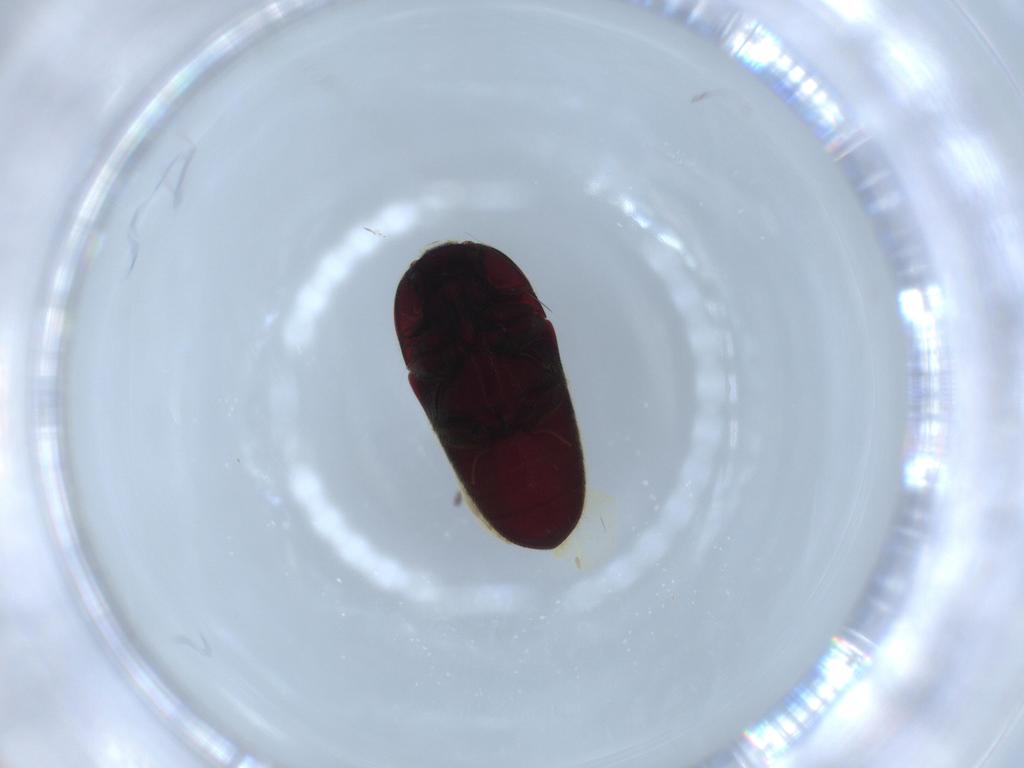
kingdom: Animalia
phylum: Arthropoda
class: Insecta
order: Coleoptera
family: Throscidae
